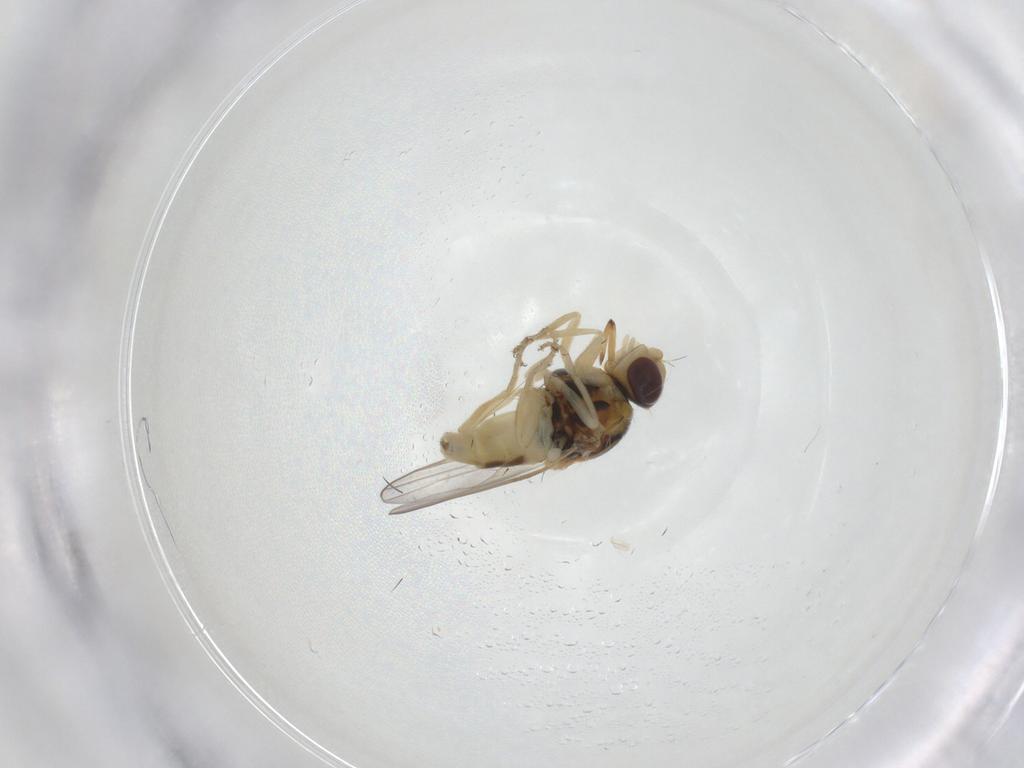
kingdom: Animalia
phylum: Arthropoda
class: Insecta
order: Diptera
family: Chloropidae
